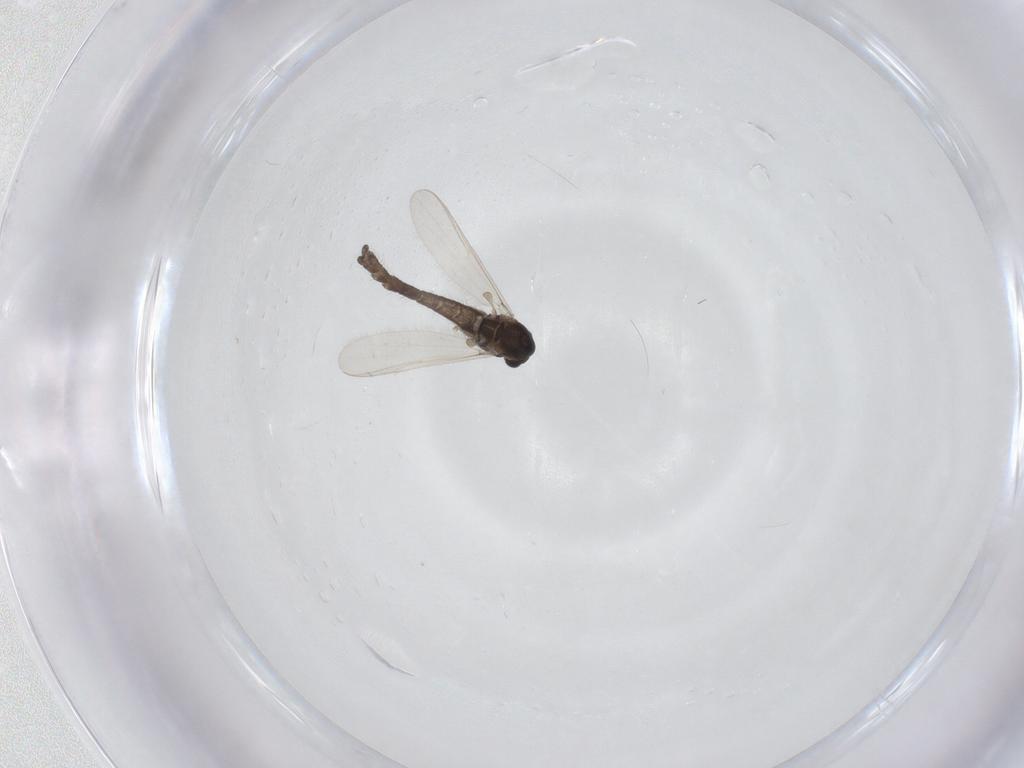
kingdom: Animalia
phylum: Arthropoda
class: Insecta
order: Diptera
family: Chironomidae
